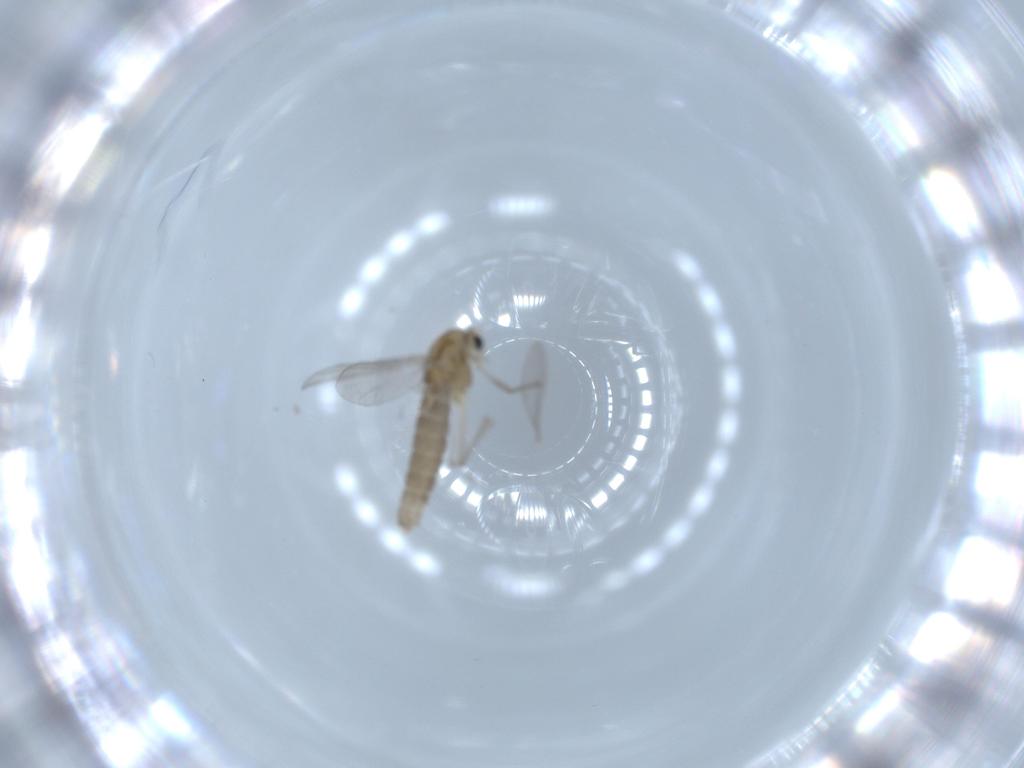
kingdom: Animalia
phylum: Arthropoda
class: Insecta
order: Diptera
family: Chironomidae
